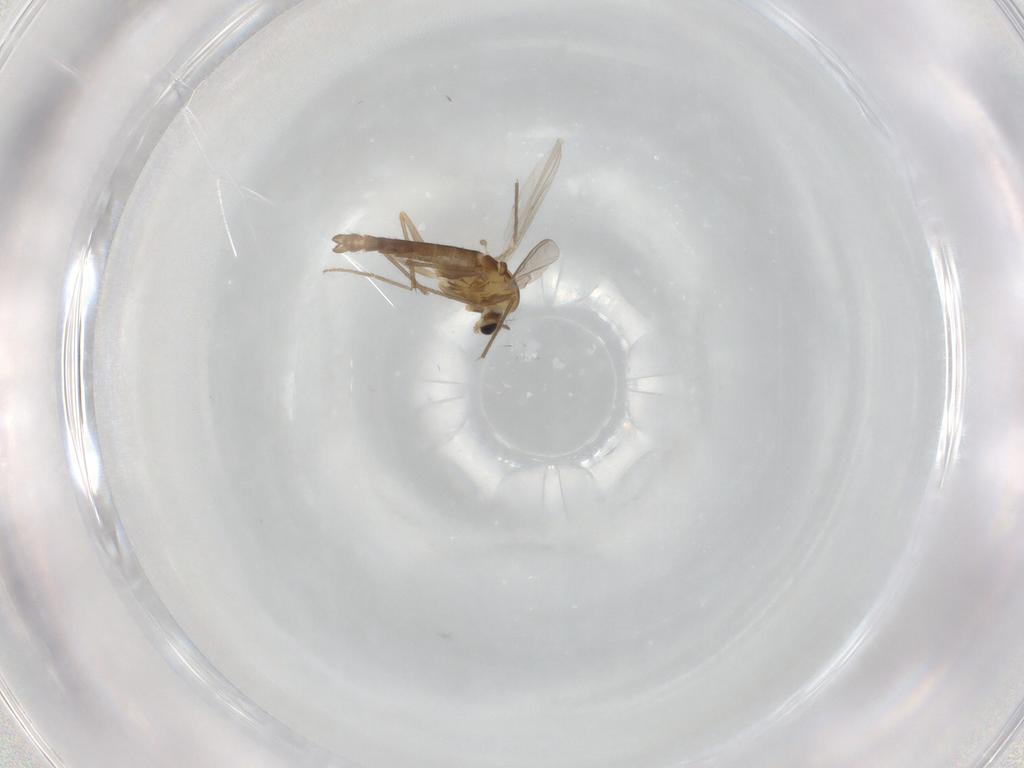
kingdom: Animalia
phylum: Arthropoda
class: Insecta
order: Diptera
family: Chironomidae
